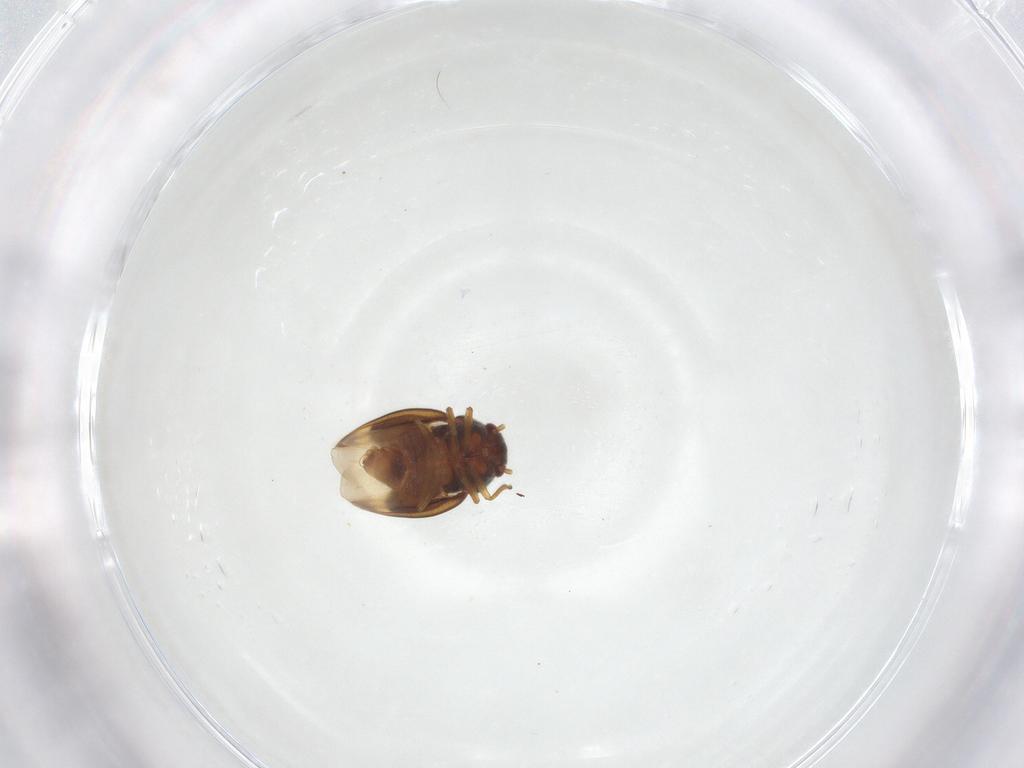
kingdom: Animalia
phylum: Arthropoda
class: Insecta
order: Hemiptera
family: Schizopteridae
